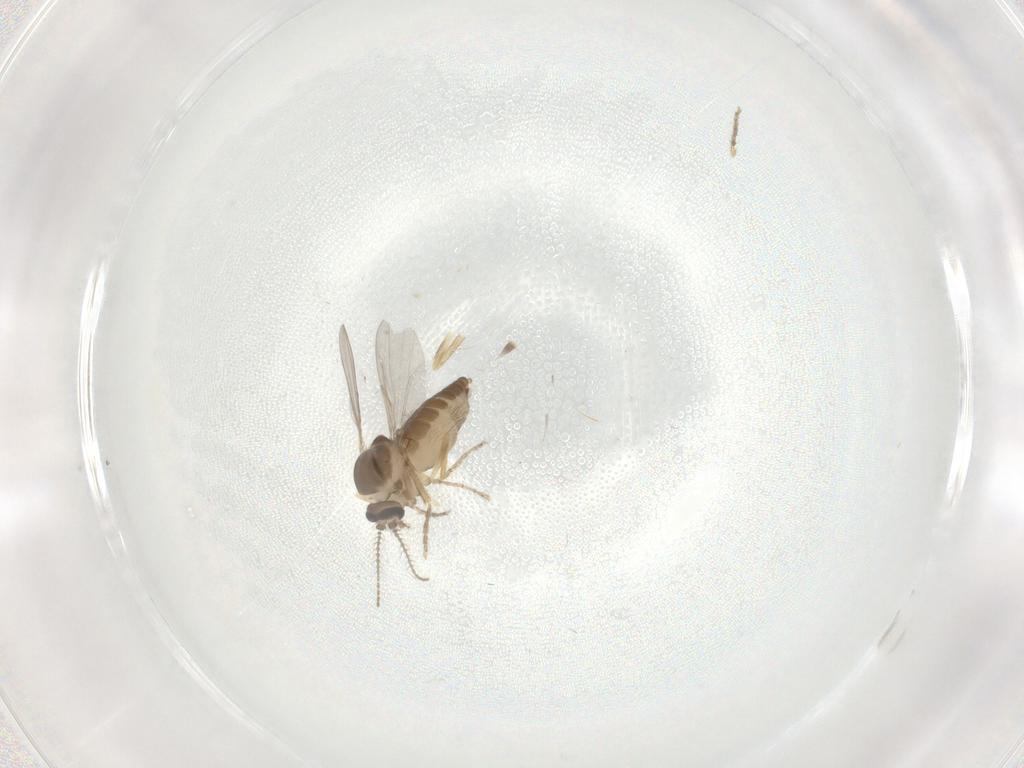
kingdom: Animalia
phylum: Arthropoda
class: Insecta
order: Diptera
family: Ceratopogonidae
